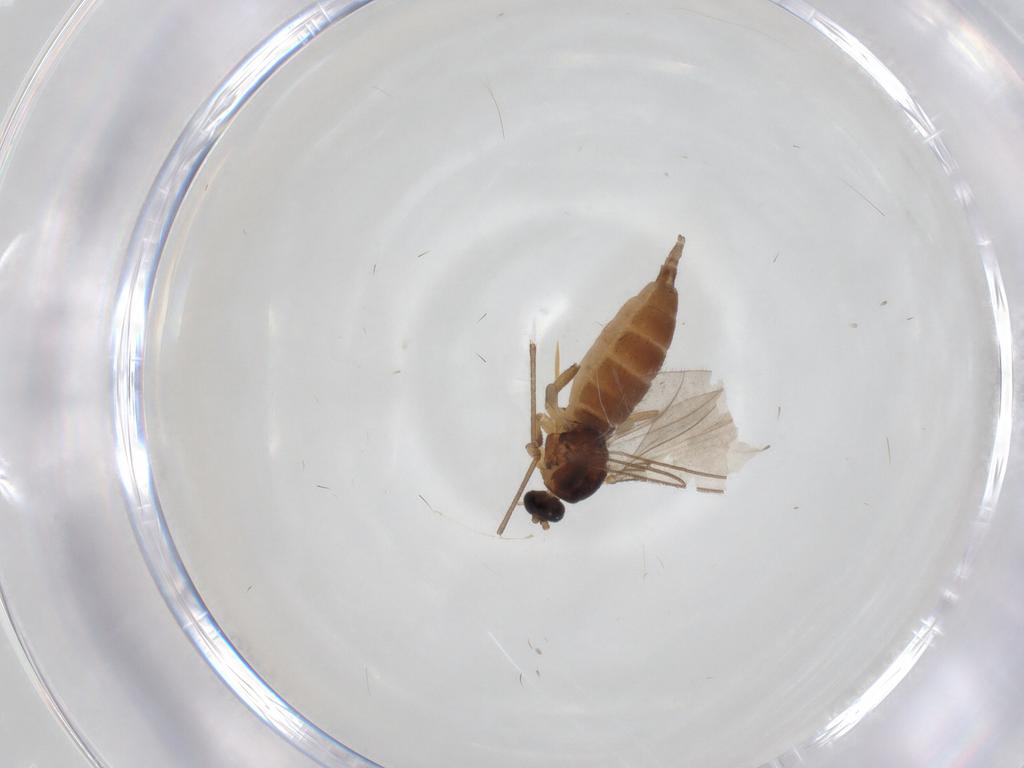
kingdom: Animalia
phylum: Arthropoda
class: Insecta
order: Diptera
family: Sciaridae
